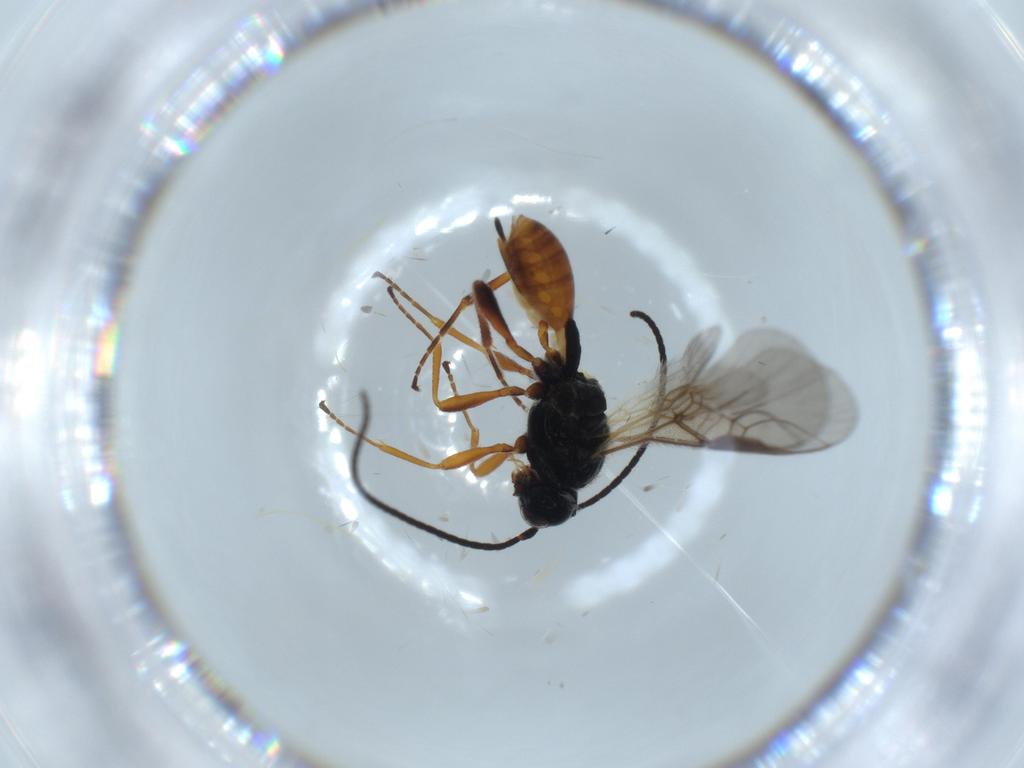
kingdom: Animalia
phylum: Arthropoda
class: Insecta
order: Hymenoptera
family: Braconidae
